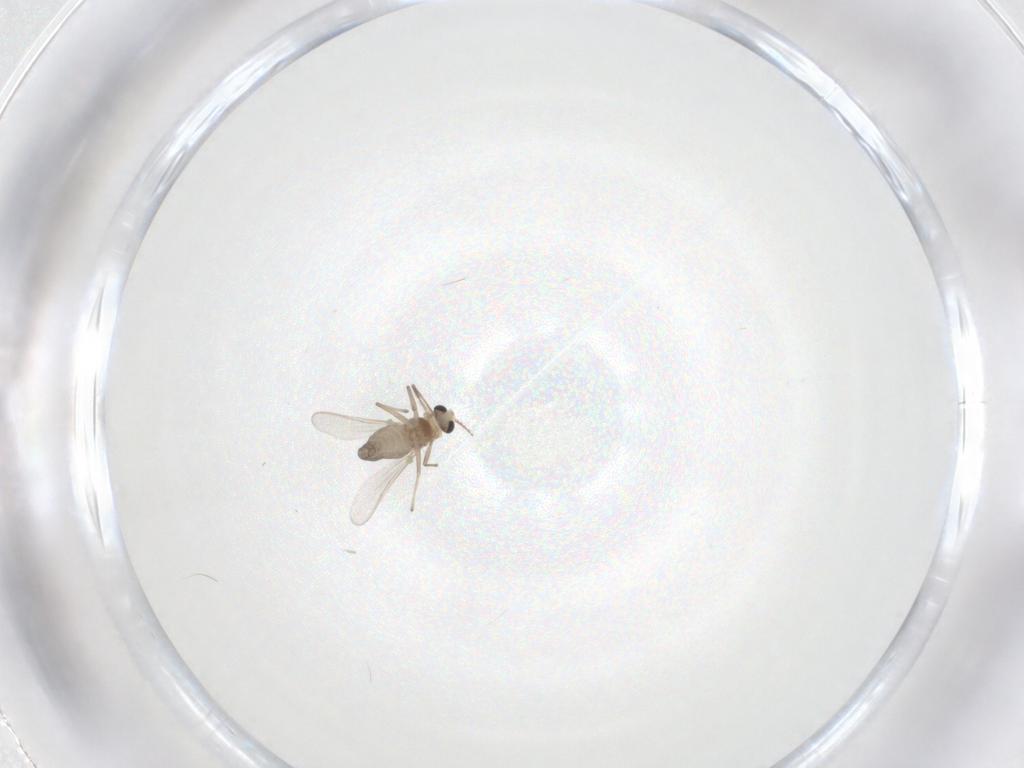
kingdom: Animalia
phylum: Arthropoda
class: Insecta
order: Diptera
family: Chironomidae
